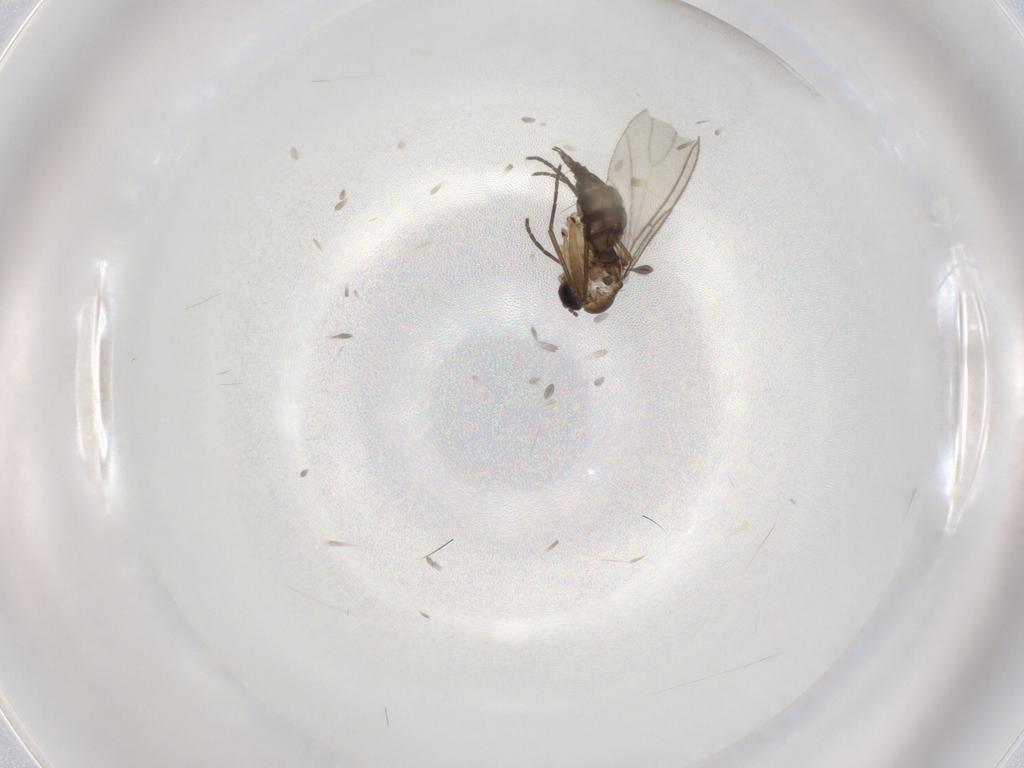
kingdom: Animalia
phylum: Arthropoda
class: Insecta
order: Diptera
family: Sciaridae
